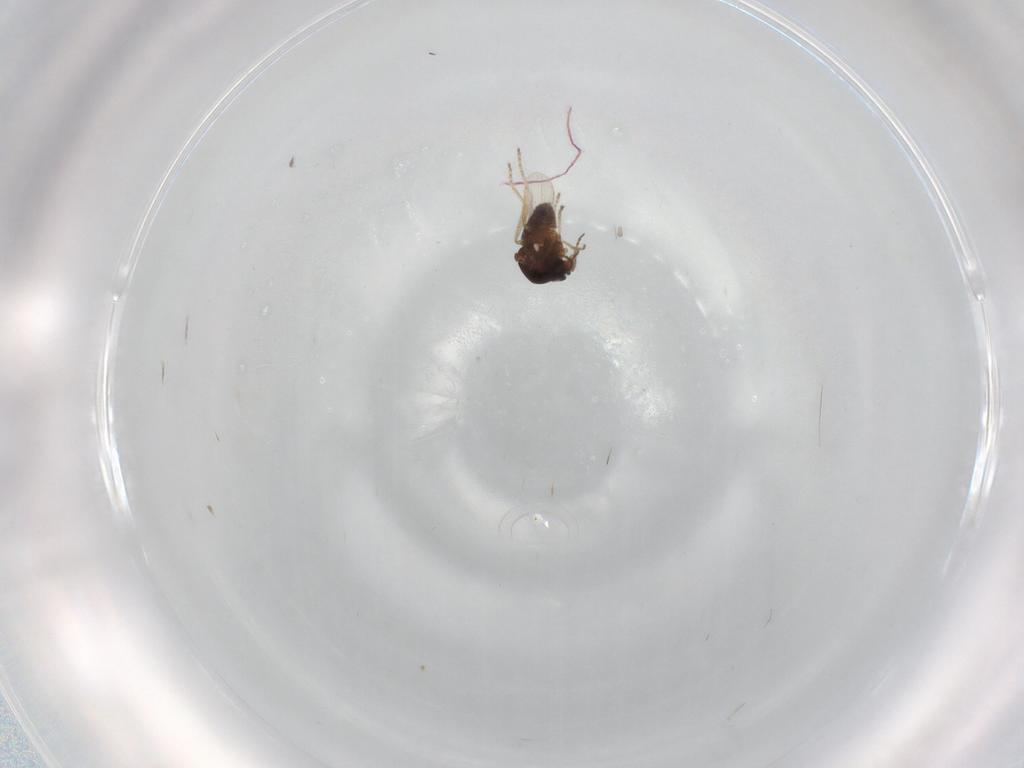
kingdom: Animalia
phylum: Arthropoda
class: Insecta
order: Diptera
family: Ceratopogonidae
